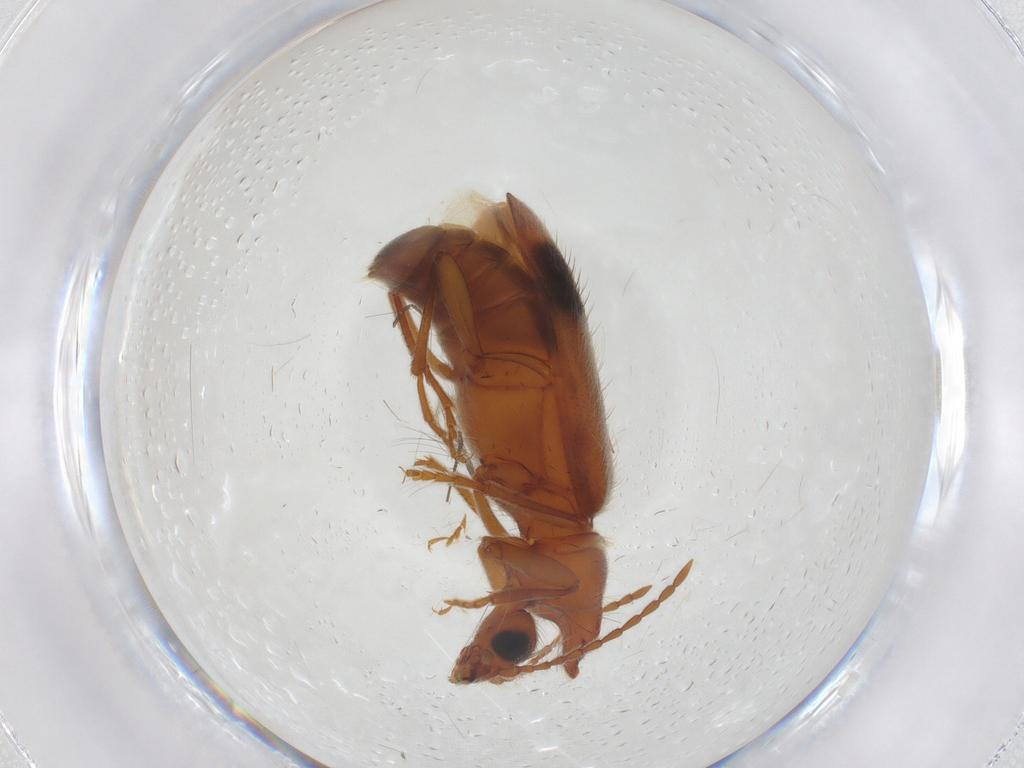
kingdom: Animalia
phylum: Arthropoda
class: Insecta
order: Coleoptera
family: Anthicidae
